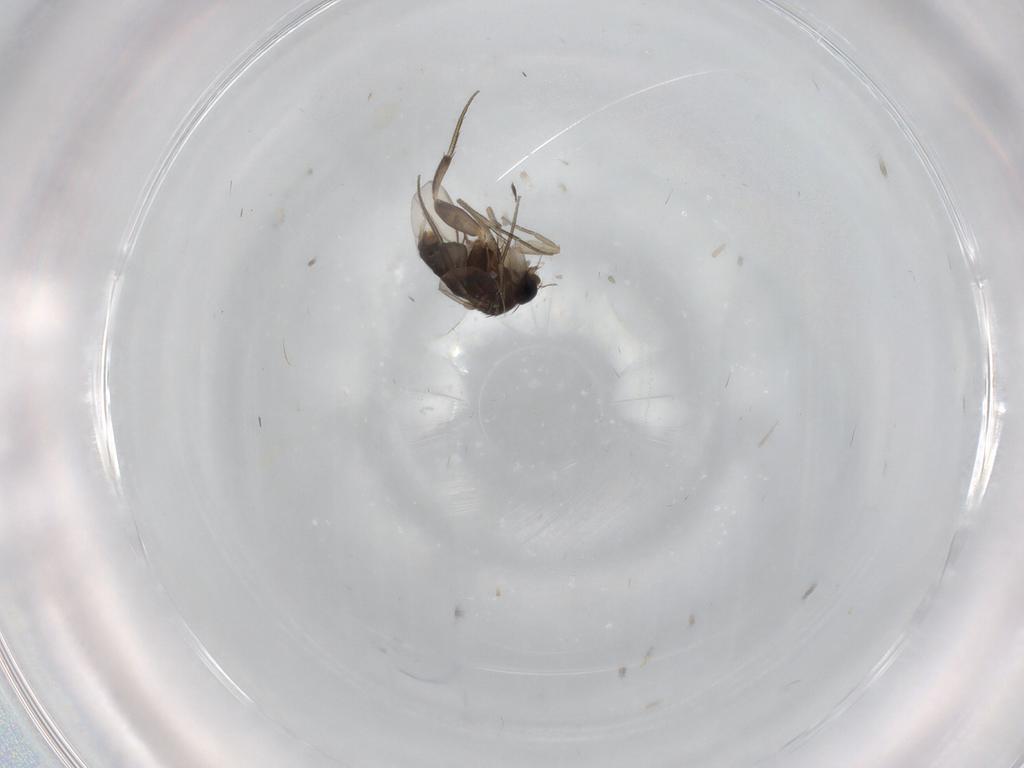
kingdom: Animalia
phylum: Arthropoda
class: Insecta
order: Diptera
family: Phoridae
